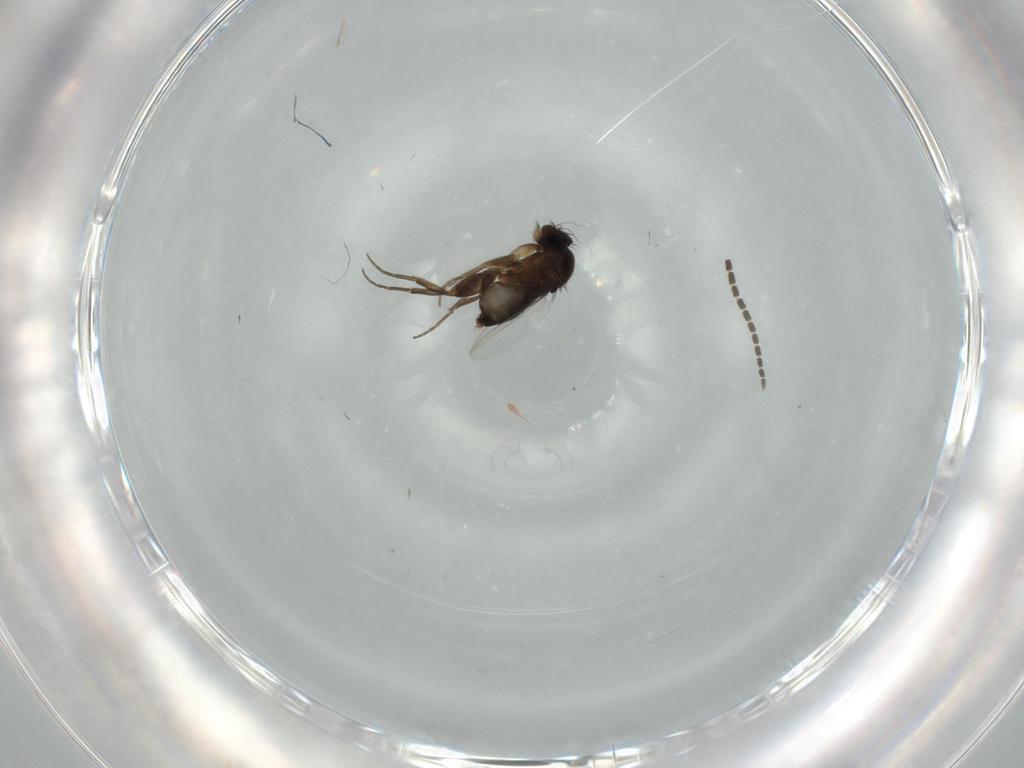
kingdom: Animalia
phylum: Arthropoda
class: Insecta
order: Diptera
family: Phoridae
